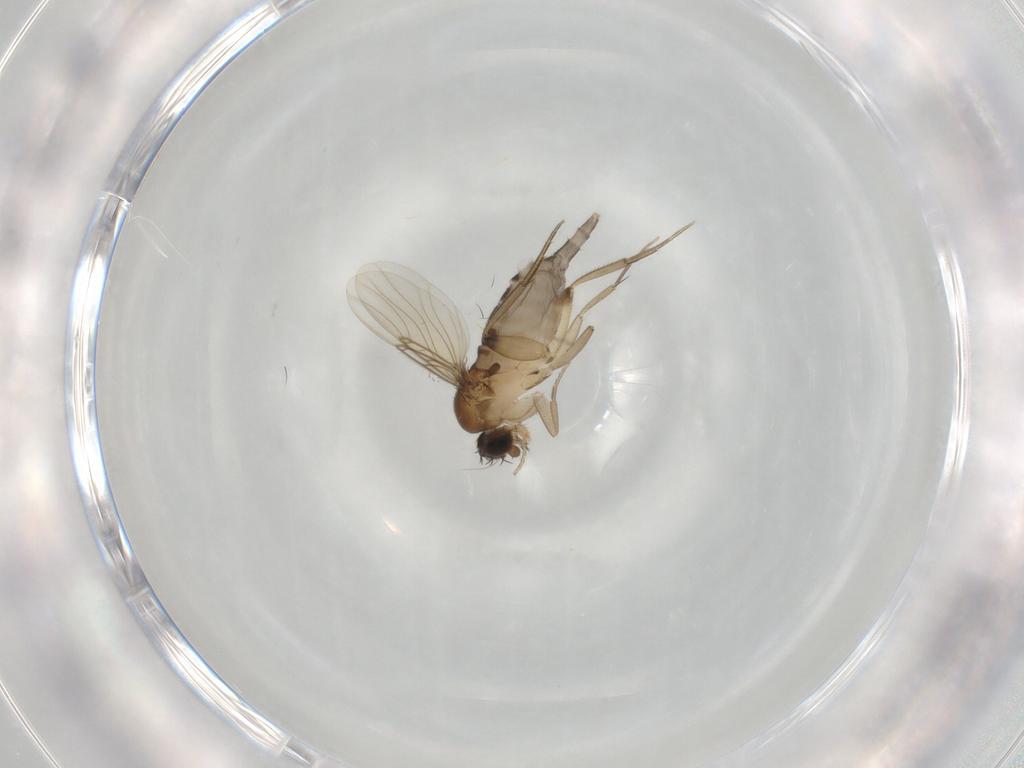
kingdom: Animalia
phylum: Arthropoda
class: Insecta
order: Diptera
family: Phoridae
